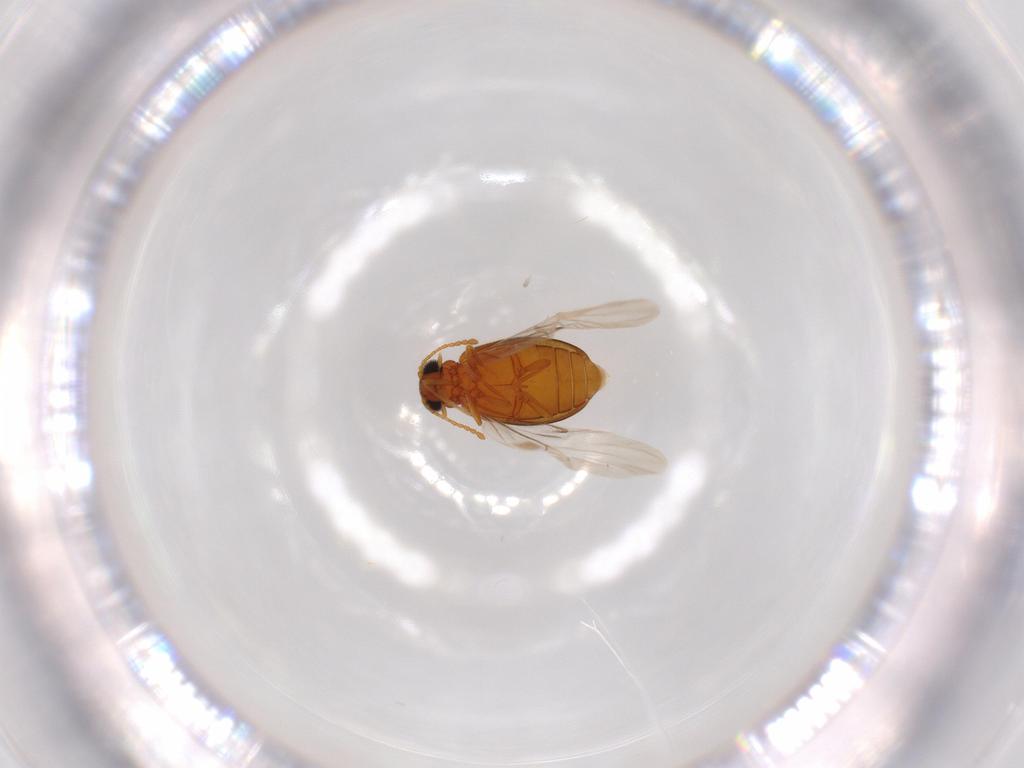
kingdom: Animalia
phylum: Arthropoda
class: Insecta
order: Coleoptera
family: Aderidae
